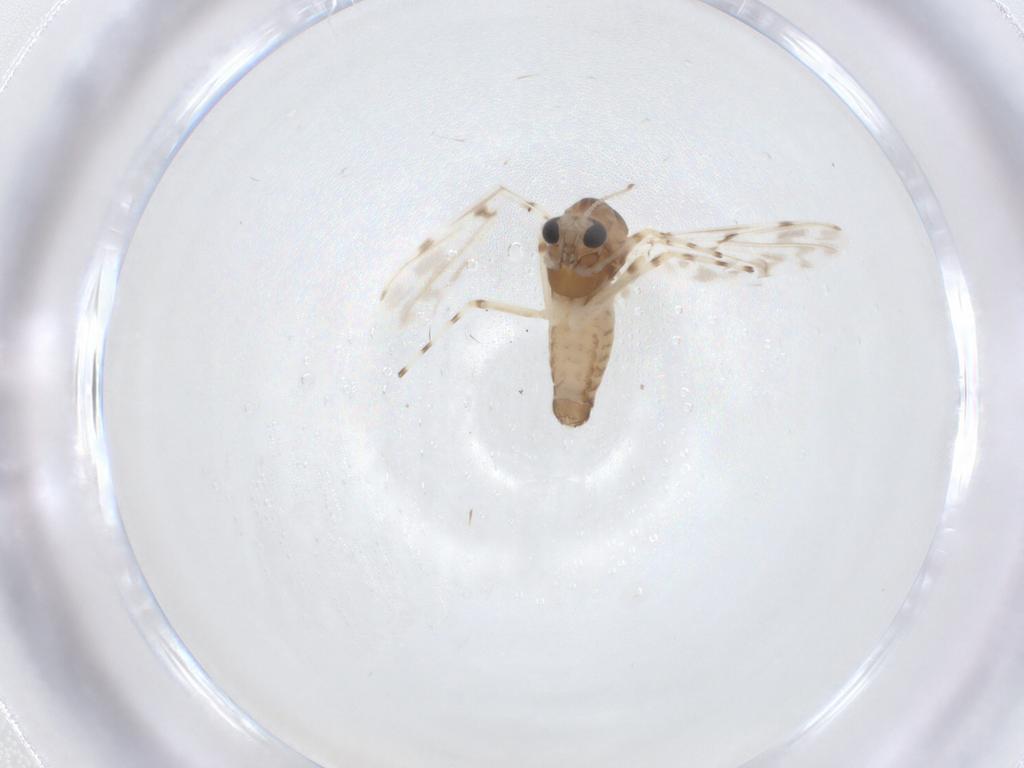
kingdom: Animalia
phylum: Arthropoda
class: Insecta
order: Diptera
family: Chironomidae
